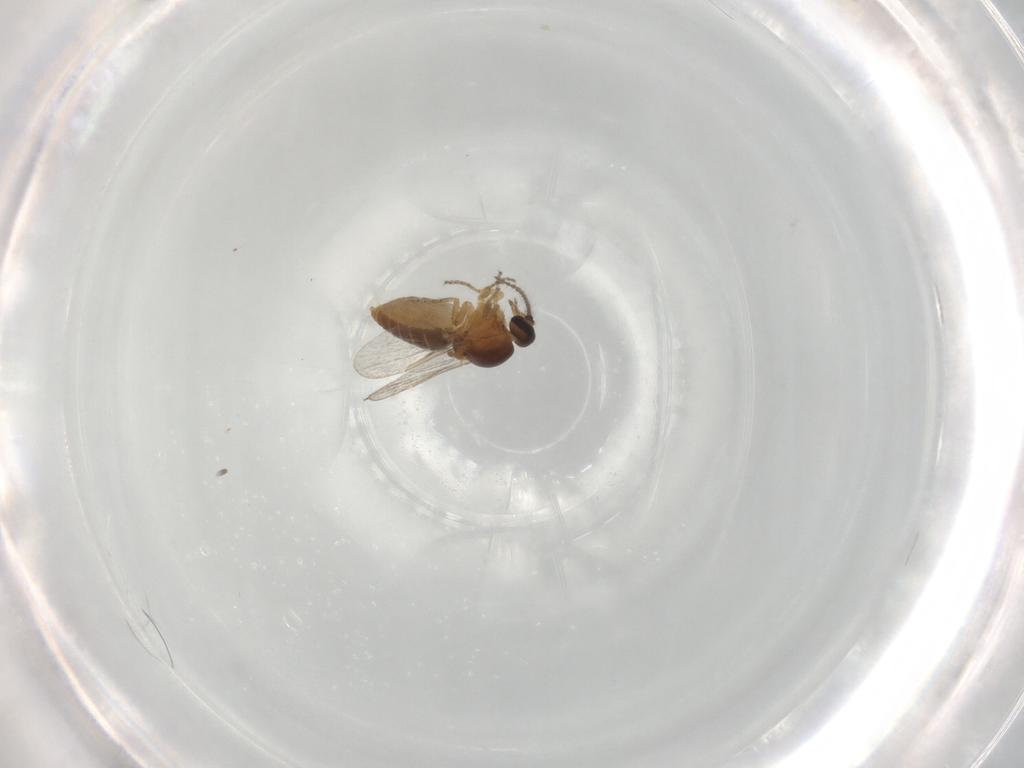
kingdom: Animalia
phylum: Arthropoda
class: Insecta
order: Diptera
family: Ceratopogonidae
